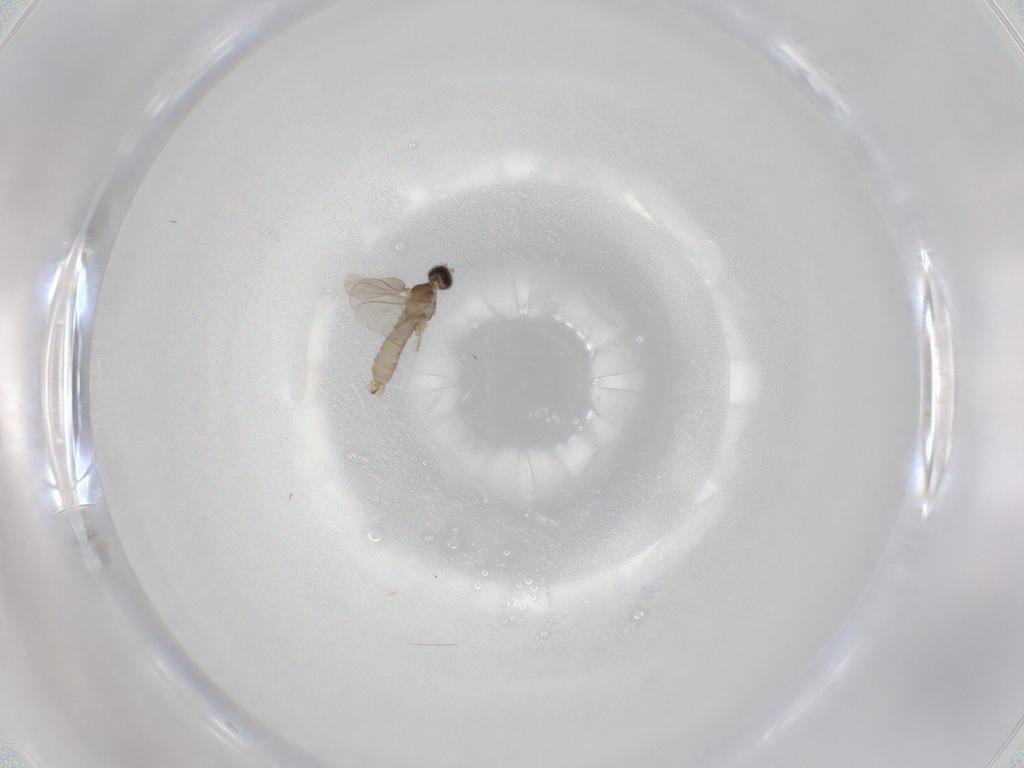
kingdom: Animalia
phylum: Arthropoda
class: Insecta
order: Diptera
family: Cecidomyiidae
